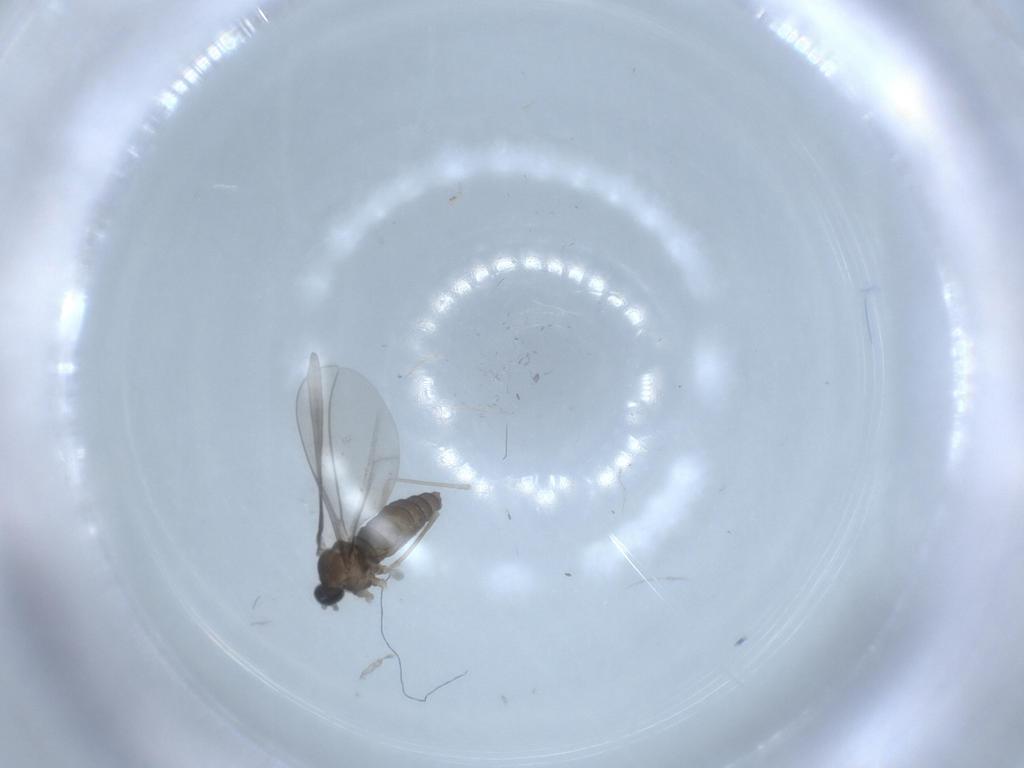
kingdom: Animalia
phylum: Arthropoda
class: Insecta
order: Diptera
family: Cecidomyiidae
